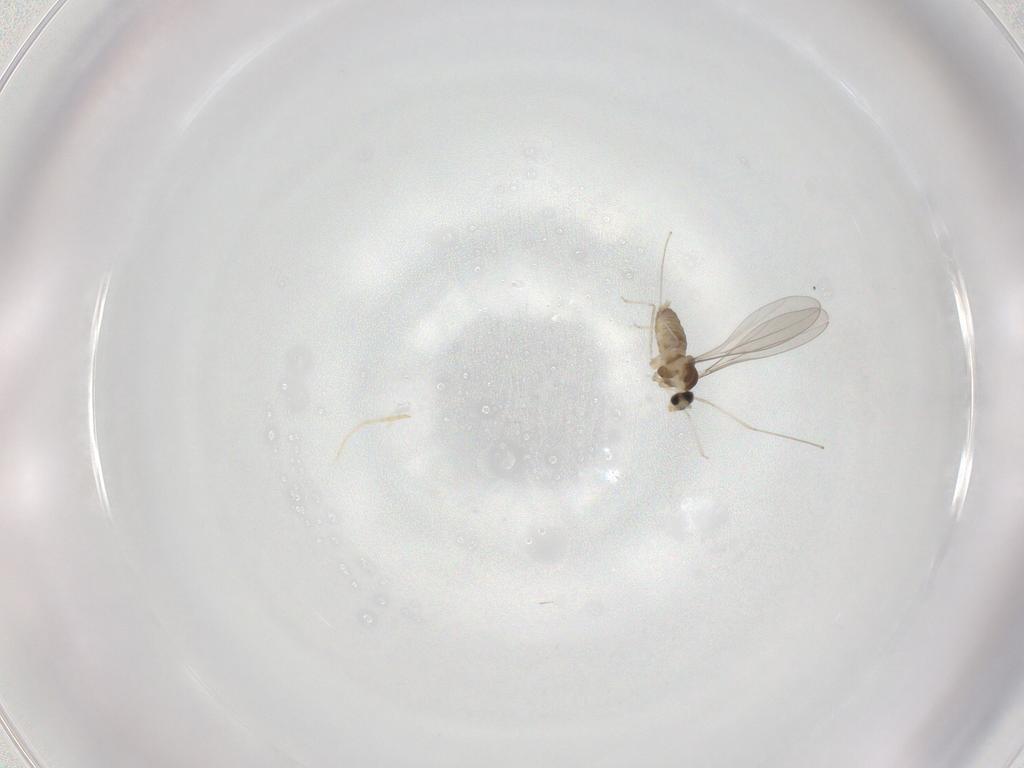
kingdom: Animalia
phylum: Arthropoda
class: Insecta
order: Diptera
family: Cecidomyiidae
